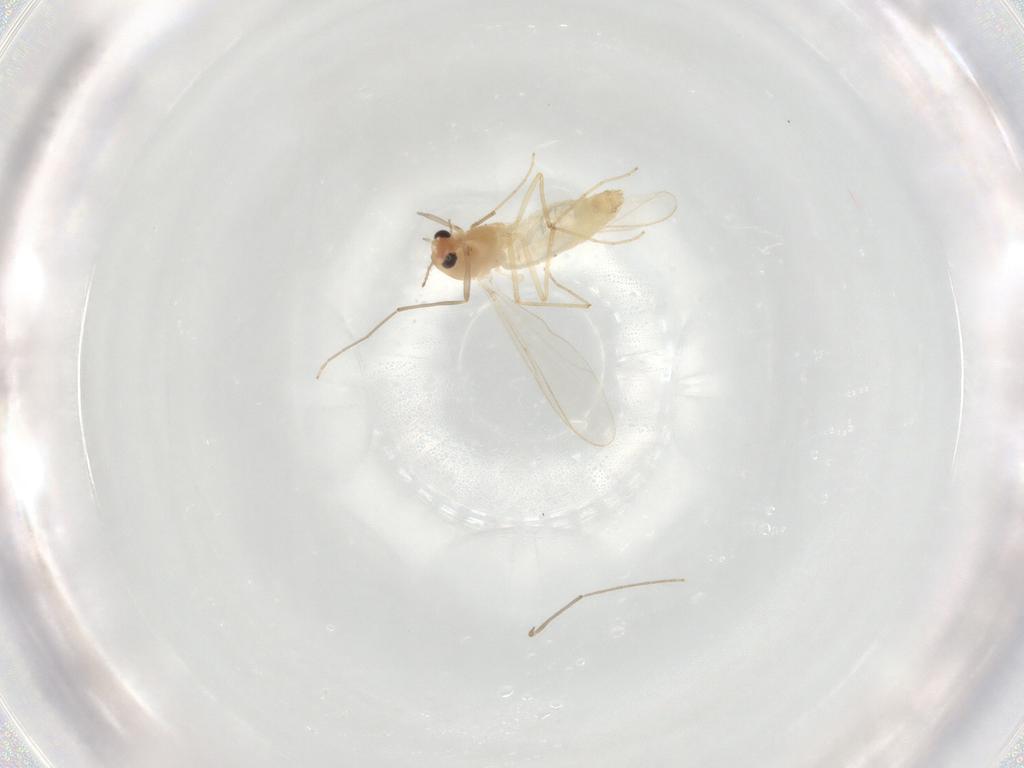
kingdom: Animalia
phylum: Arthropoda
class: Insecta
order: Diptera
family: Chironomidae
